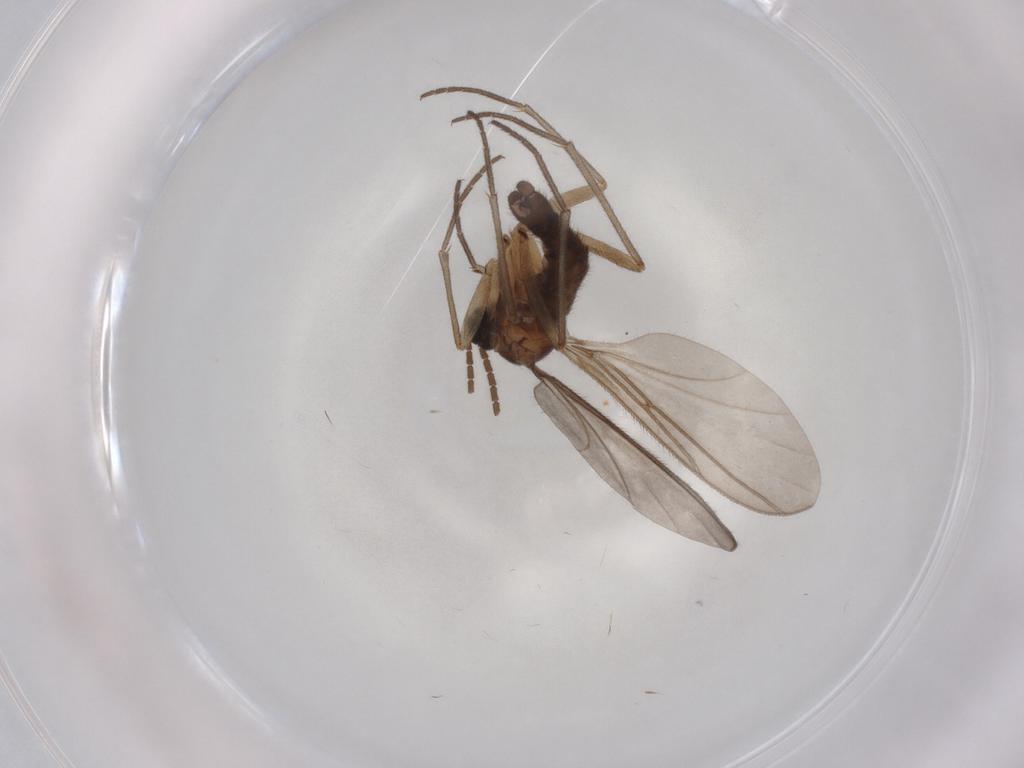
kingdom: Animalia
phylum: Arthropoda
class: Insecta
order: Diptera
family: Sciaridae
